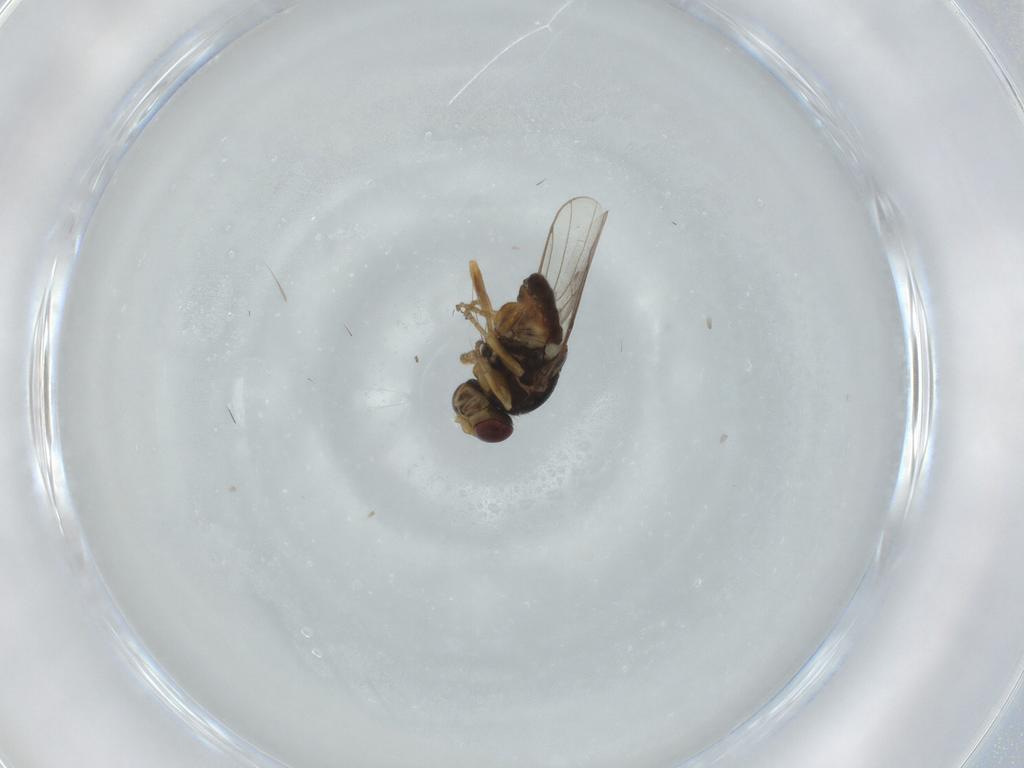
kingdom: Animalia
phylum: Arthropoda
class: Insecta
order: Diptera
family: Chloropidae
